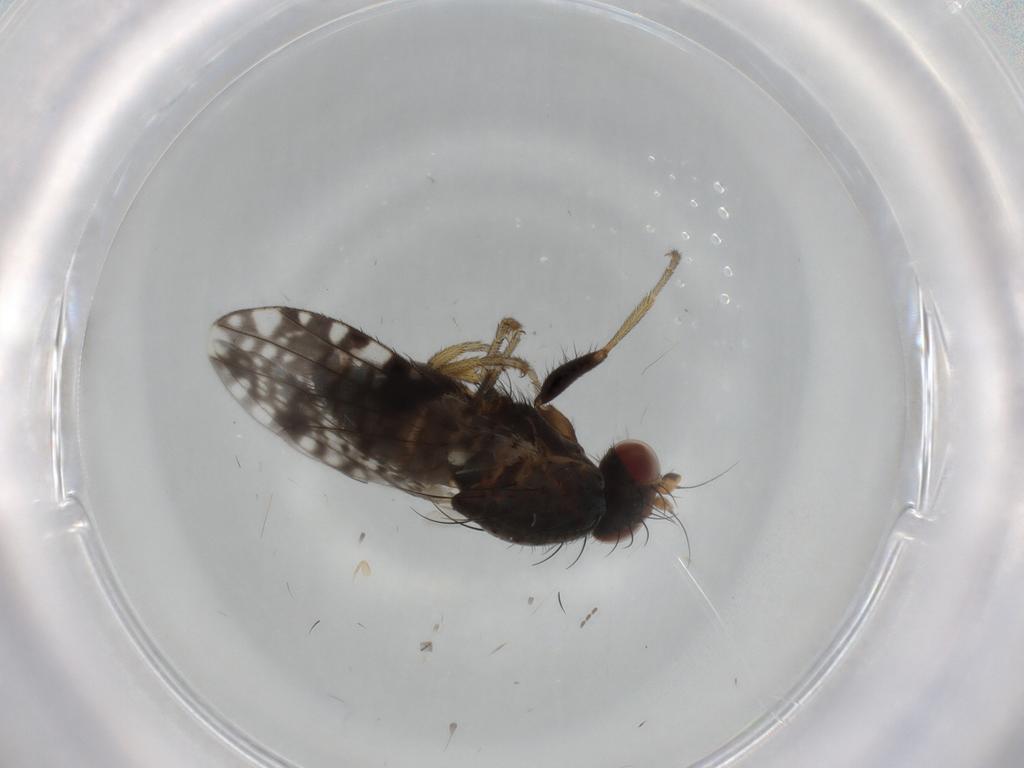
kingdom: Animalia
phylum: Arthropoda
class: Insecta
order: Diptera
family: Tephritidae
